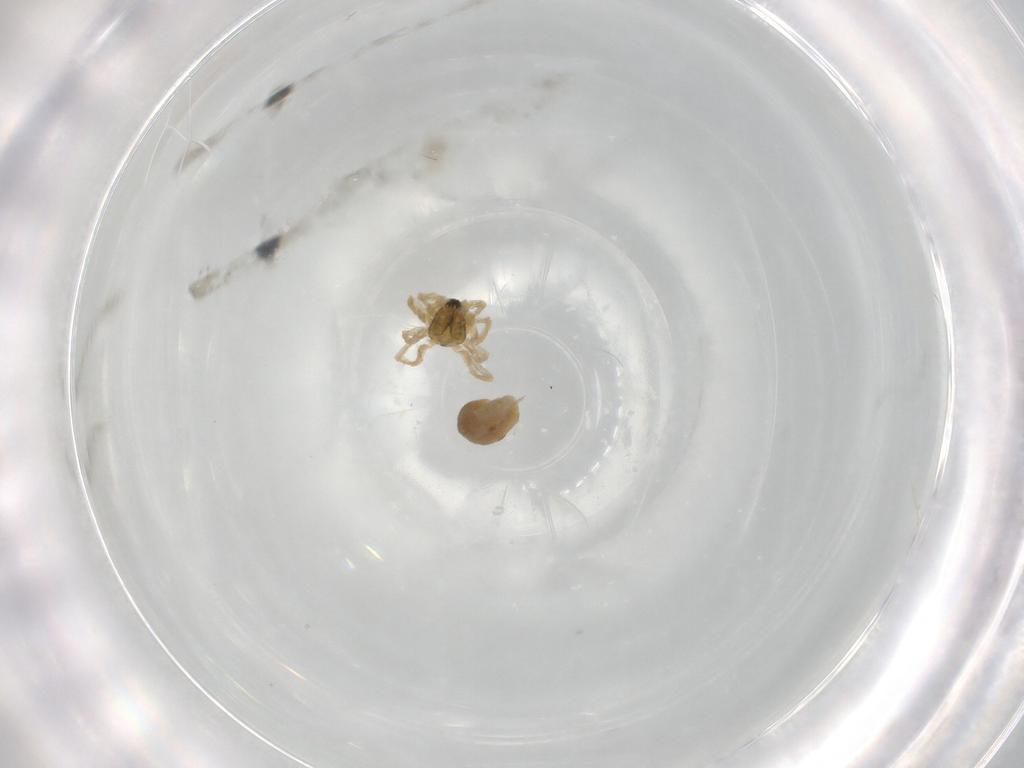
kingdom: Animalia
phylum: Arthropoda
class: Arachnida
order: Araneae
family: Linyphiidae
